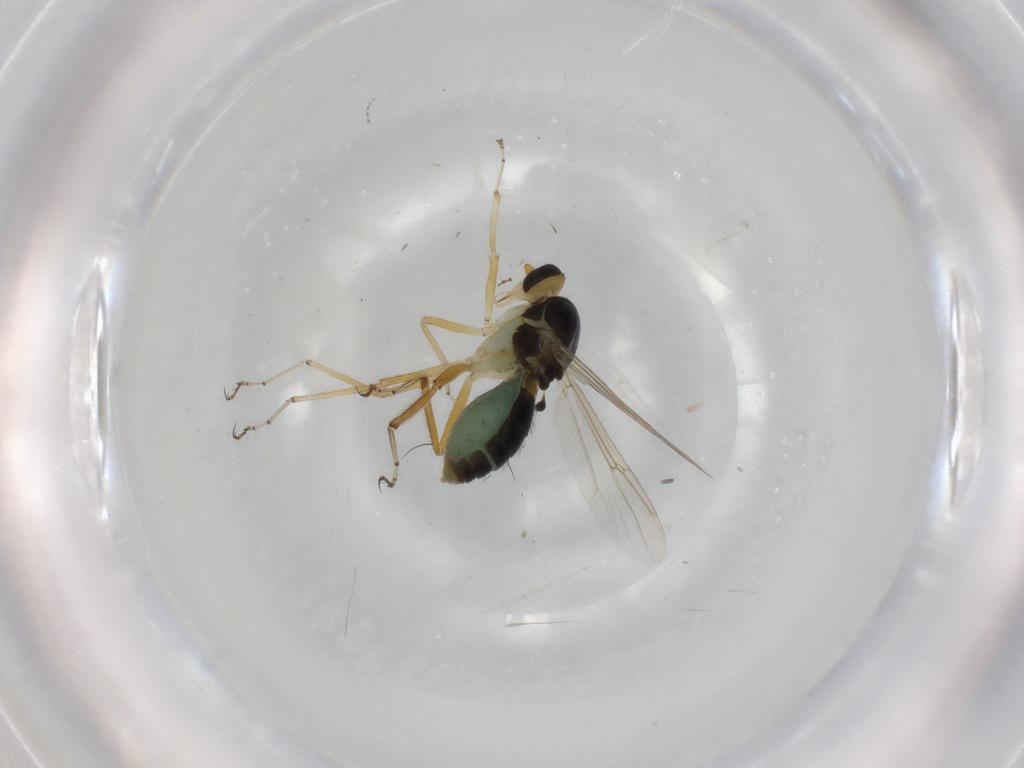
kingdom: Animalia
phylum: Arthropoda
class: Insecta
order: Diptera
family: Ceratopogonidae
